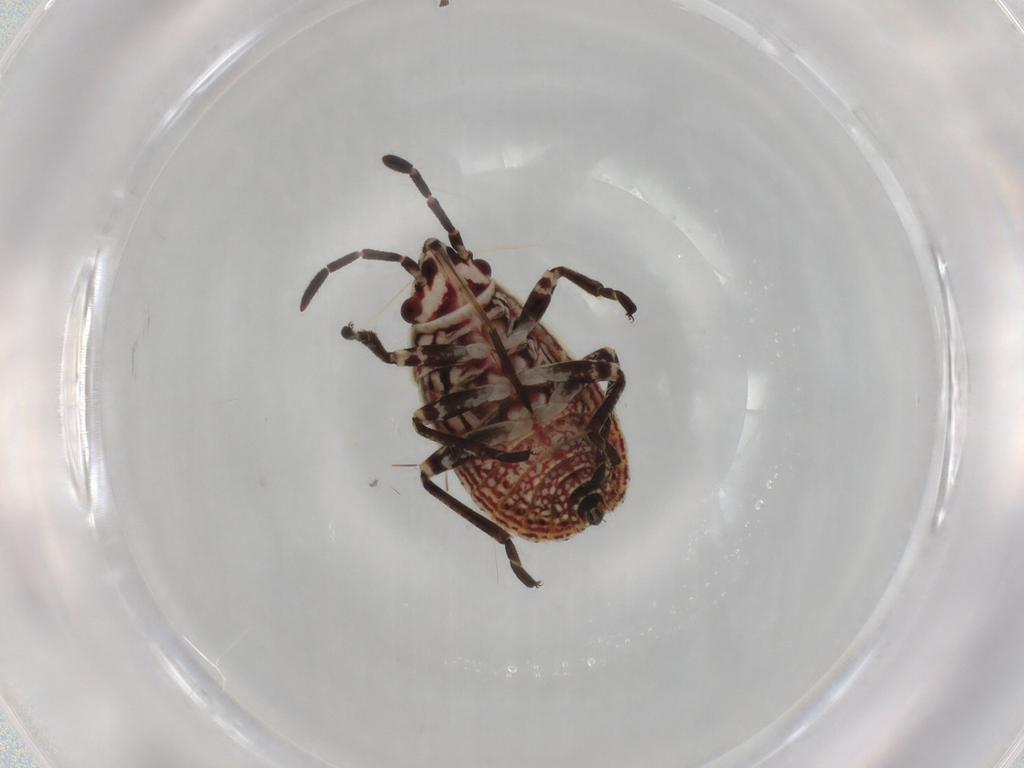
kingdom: Animalia
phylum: Arthropoda
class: Insecta
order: Hemiptera
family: Lygaeidae
